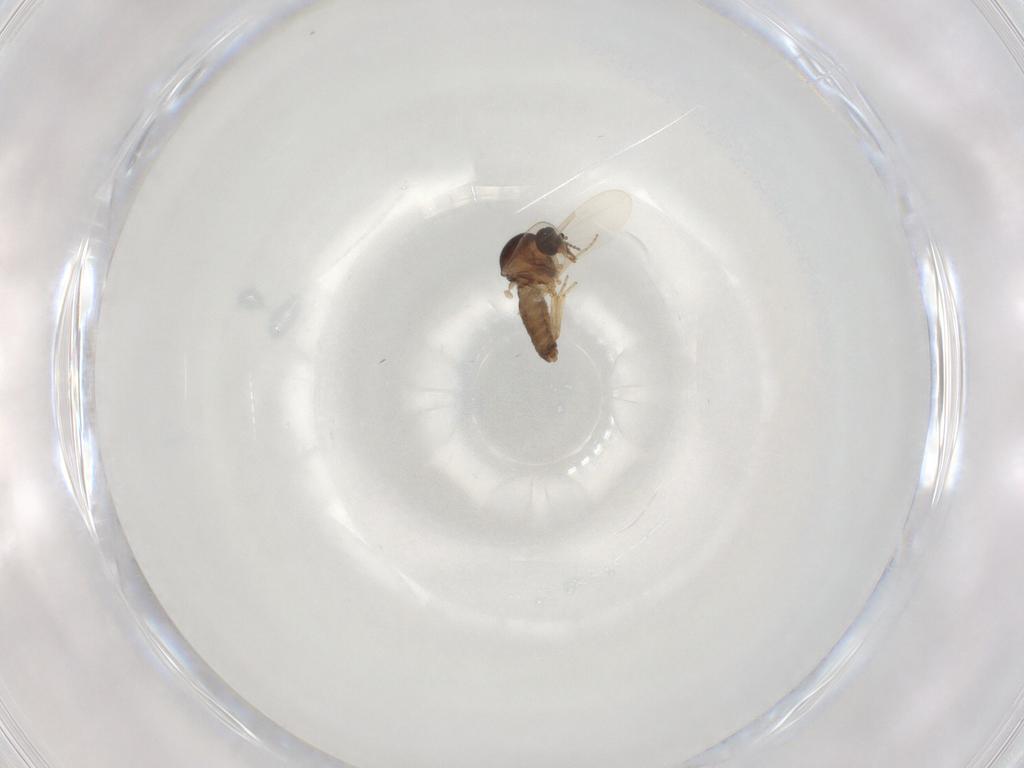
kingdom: Animalia
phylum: Arthropoda
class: Insecta
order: Diptera
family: Ceratopogonidae
